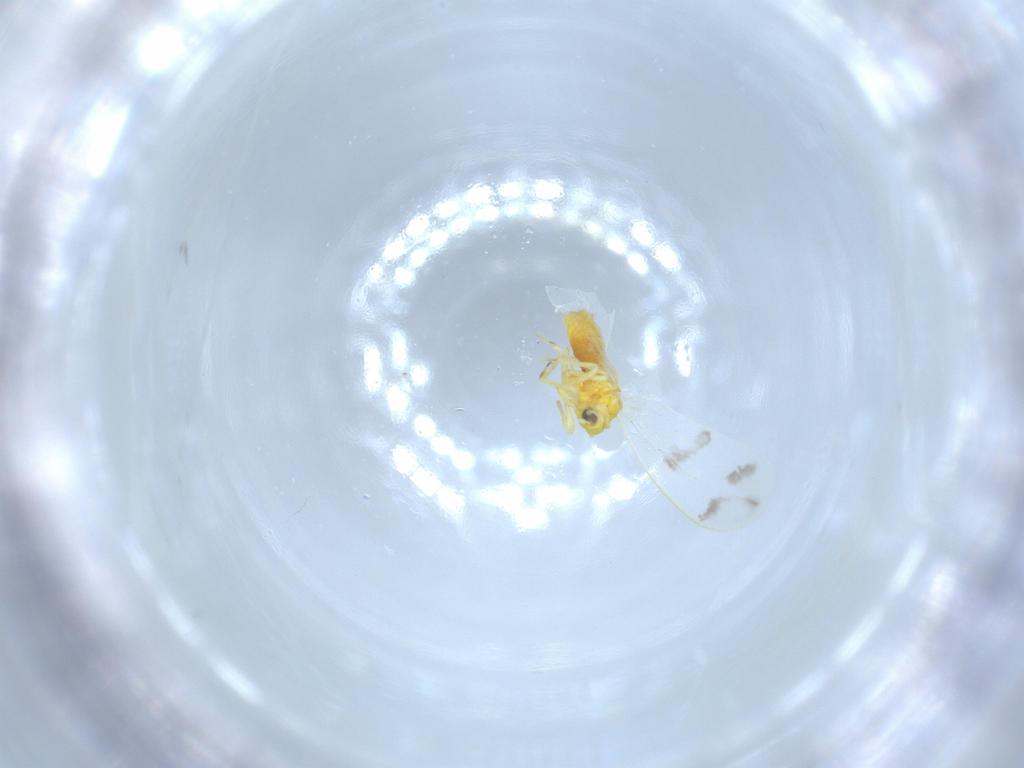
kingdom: Animalia
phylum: Arthropoda
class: Insecta
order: Hemiptera
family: Aleyrodidae
